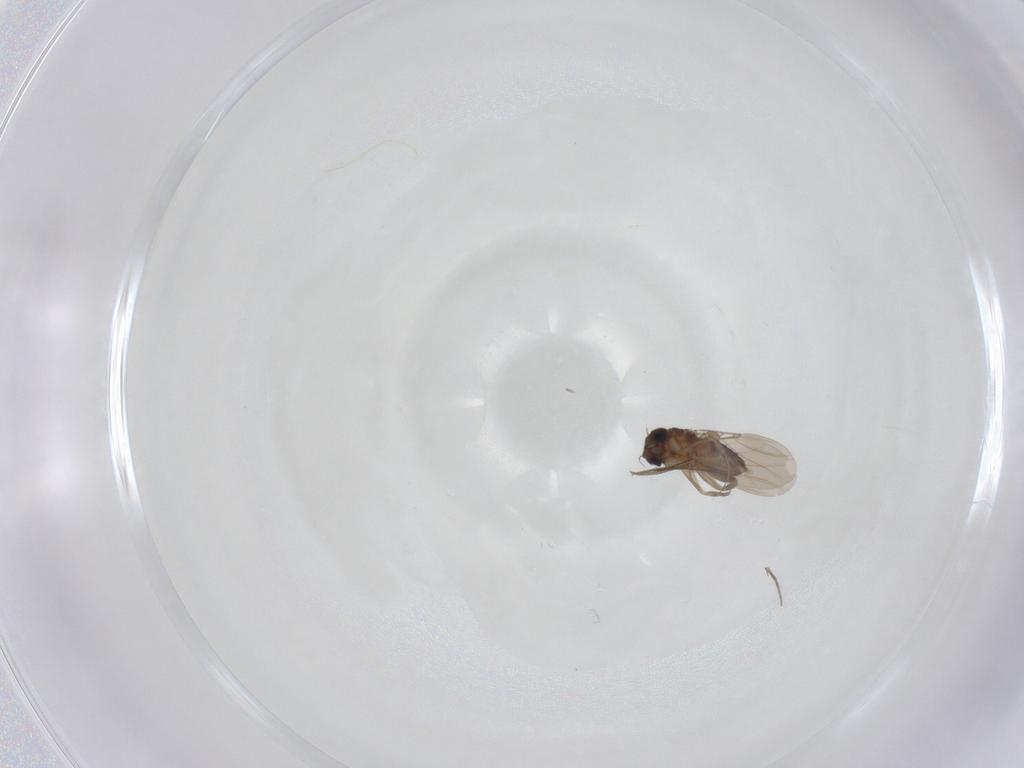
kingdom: Animalia
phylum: Arthropoda
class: Insecta
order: Diptera
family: Phoridae
